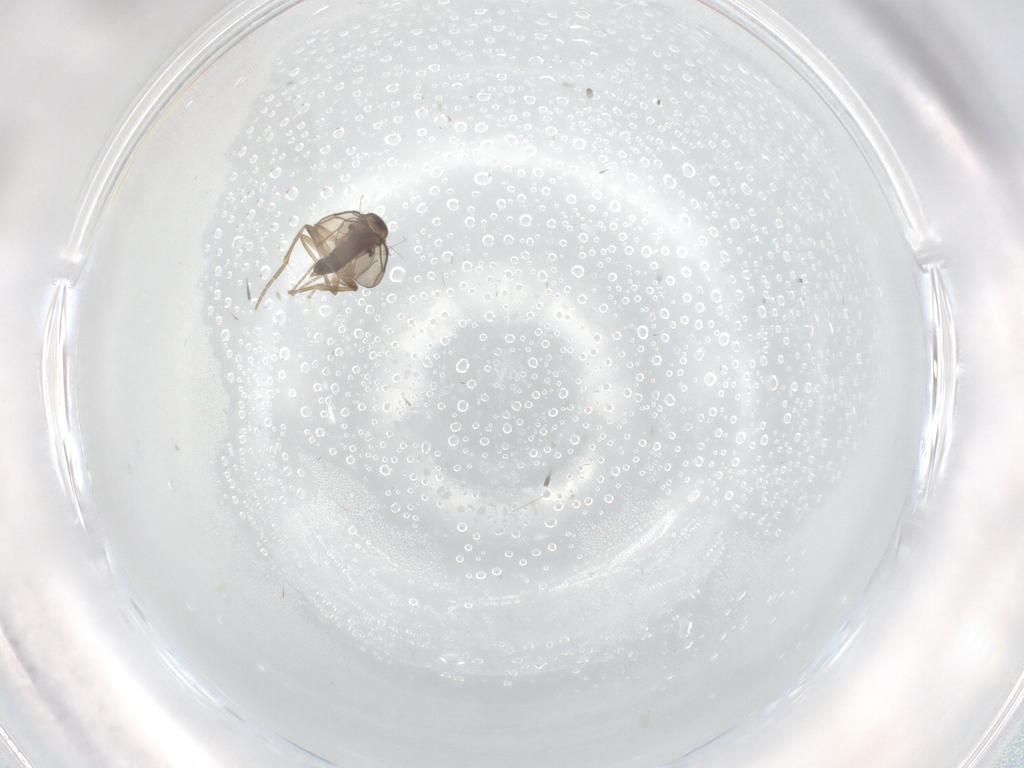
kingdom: Animalia
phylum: Arthropoda
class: Insecta
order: Diptera
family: Phoridae
